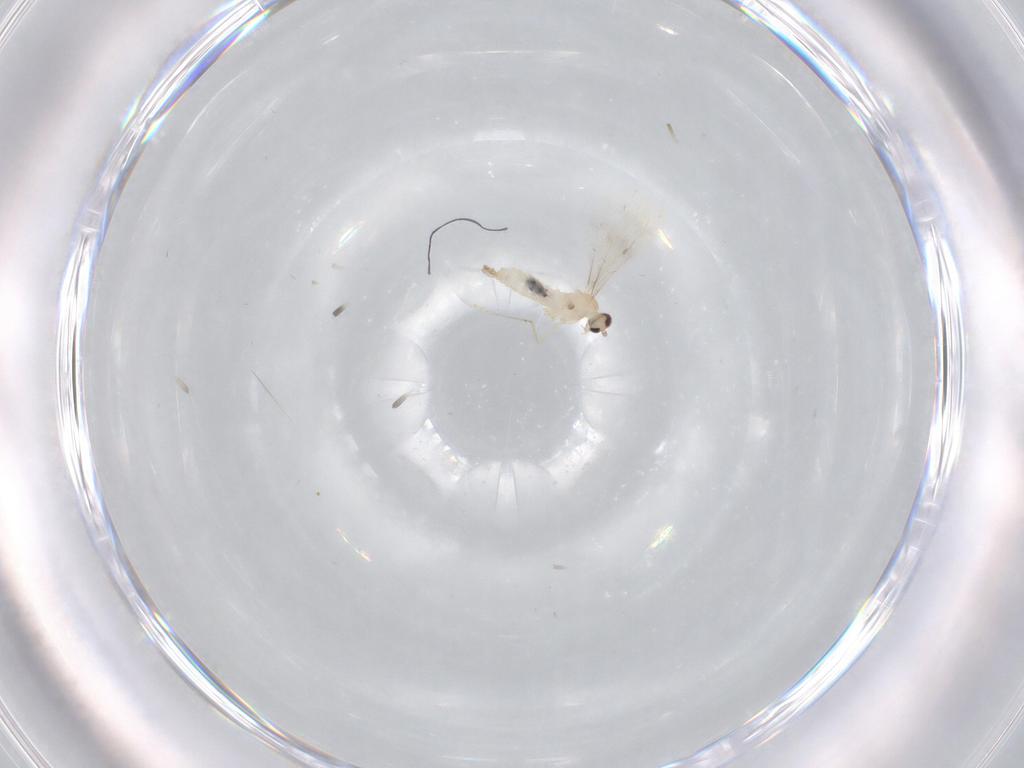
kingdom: Animalia
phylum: Arthropoda
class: Insecta
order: Diptera
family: Cecidomyiidae
